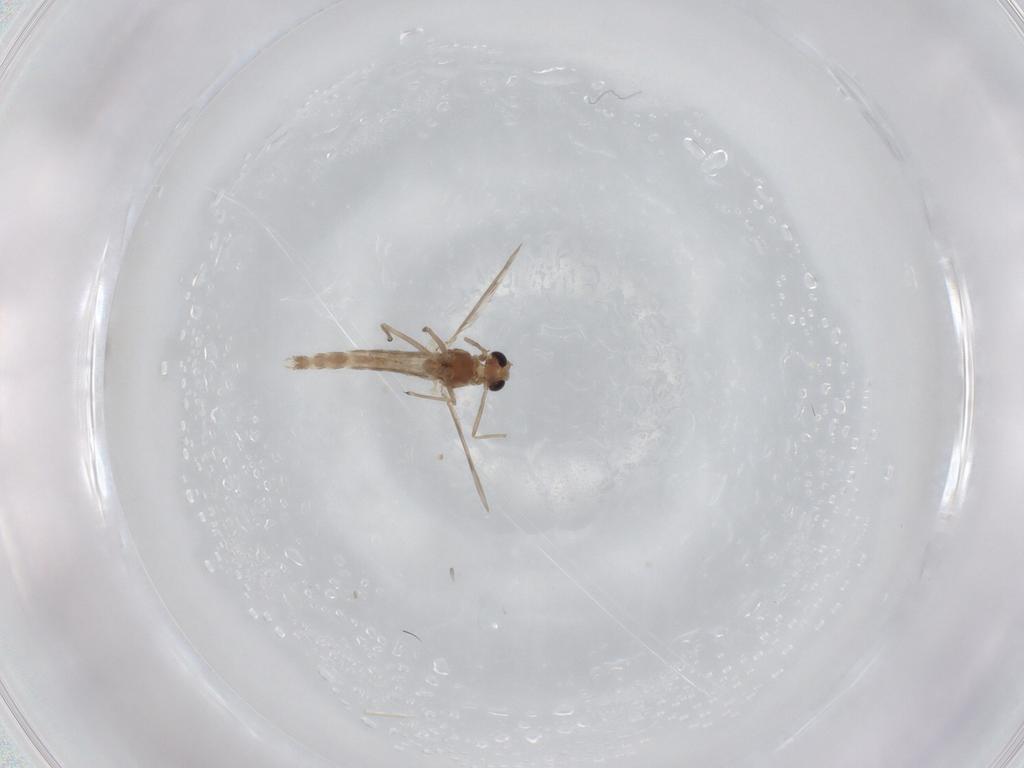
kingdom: Animalia
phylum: Arthropoda
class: Insecta
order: Diptera
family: Chironomidae
